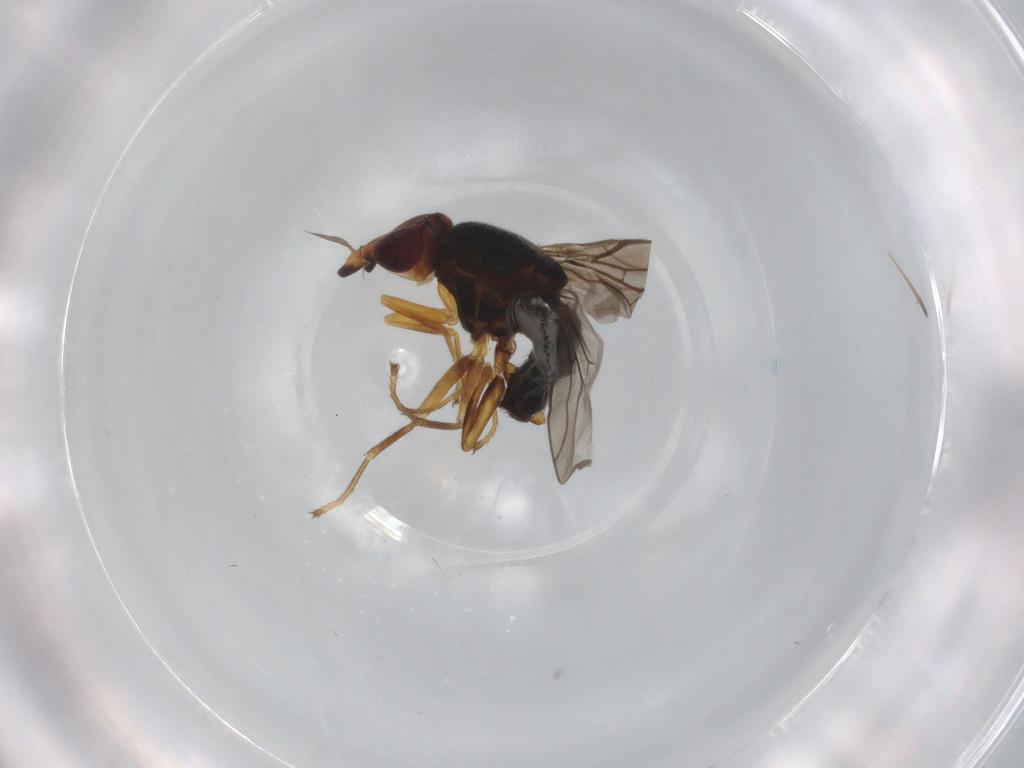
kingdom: Animalia
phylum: Arthropoda
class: Insecta
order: Diptera
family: Chloropidae
